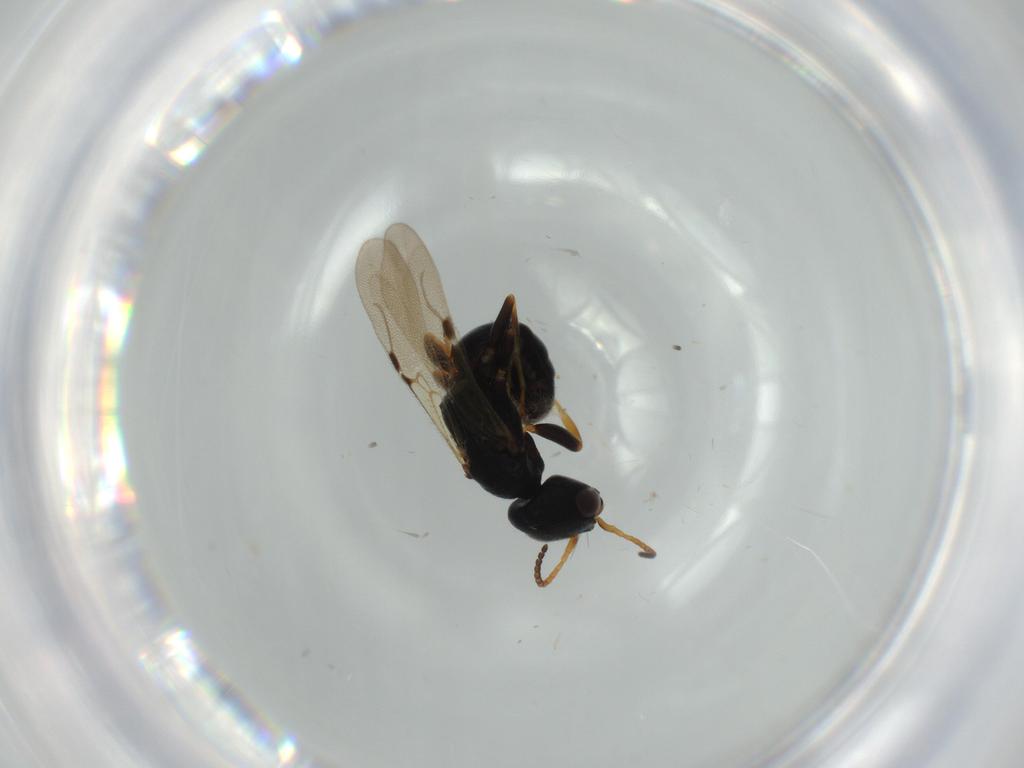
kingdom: Animalia
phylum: Arthropoda
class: Insecta
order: Hymenoptera
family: Bethylidae
